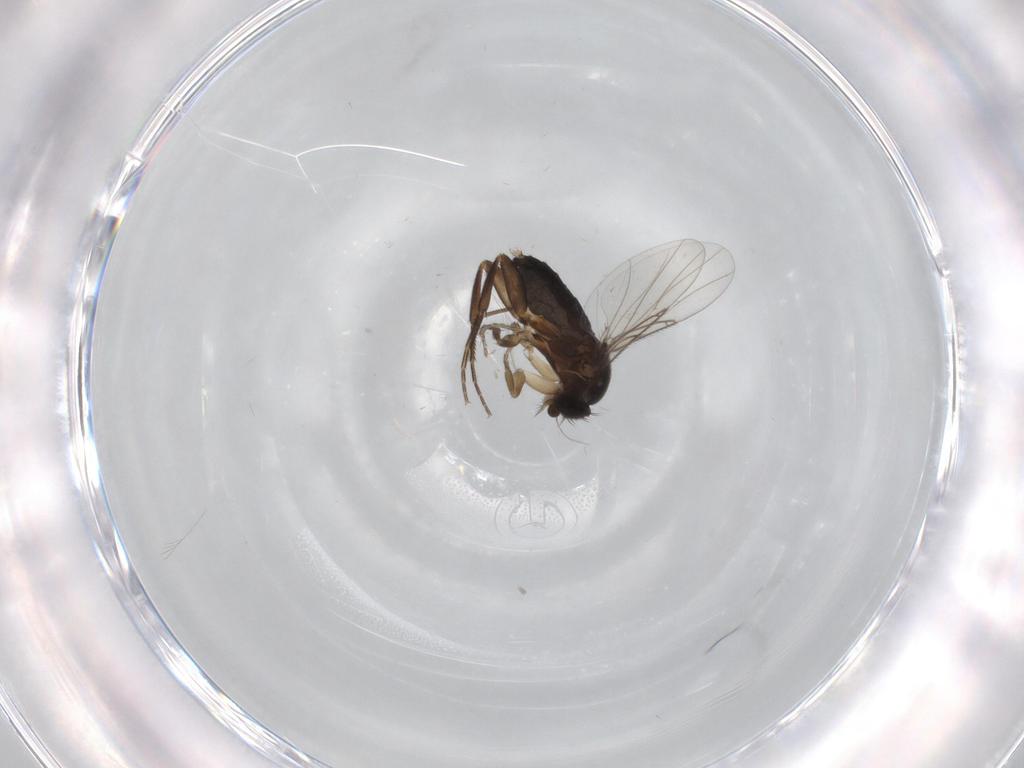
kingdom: Animalia
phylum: Arthropoda
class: Insecta
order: Diptera
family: Phoridae
